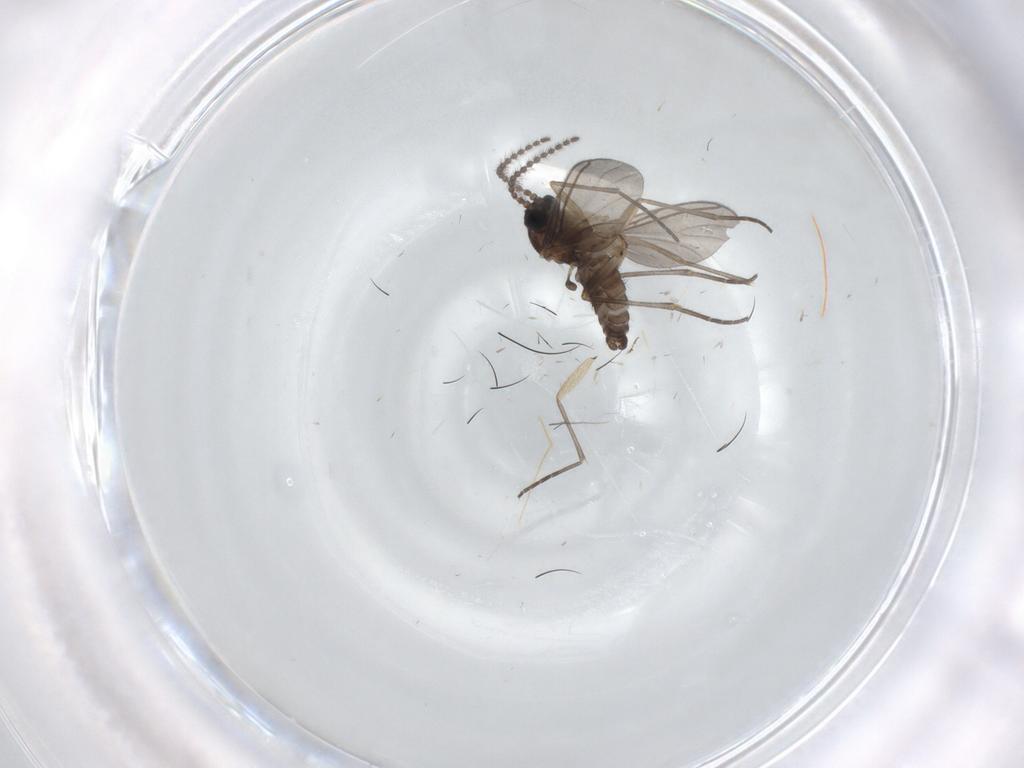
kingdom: Animalia
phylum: Arthropoda
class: Insecta
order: Diptera
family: Sciaridae
